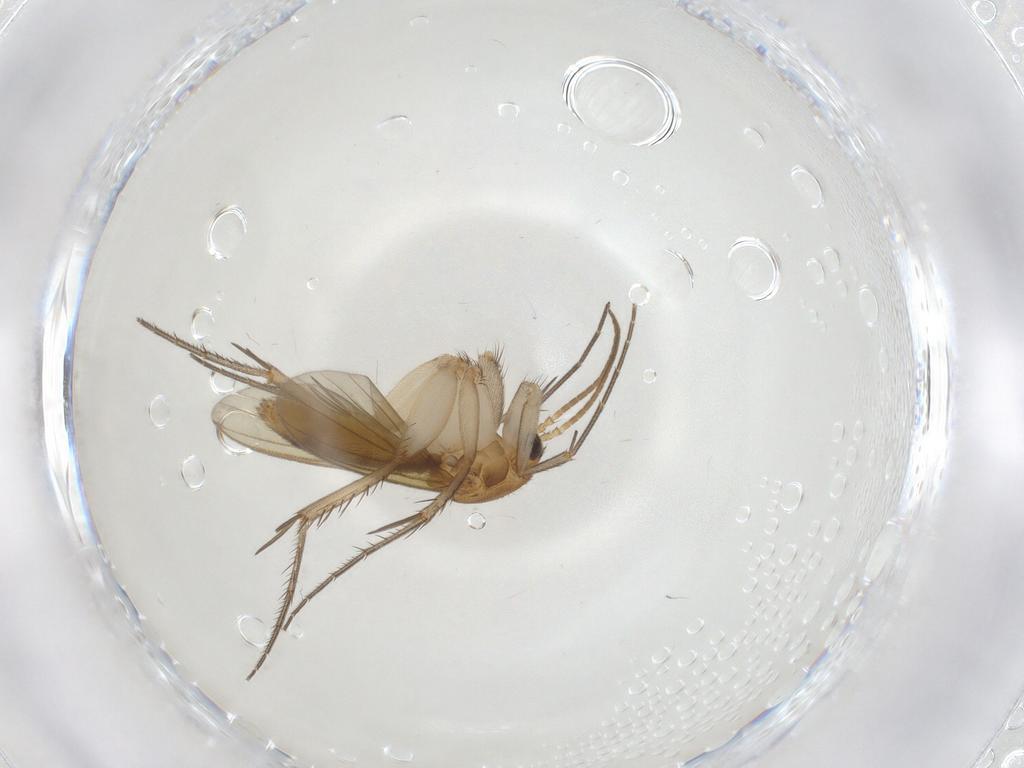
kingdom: Animalia
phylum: Arthropoda
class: Insecta
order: Diptera
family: Mycetophilidae
